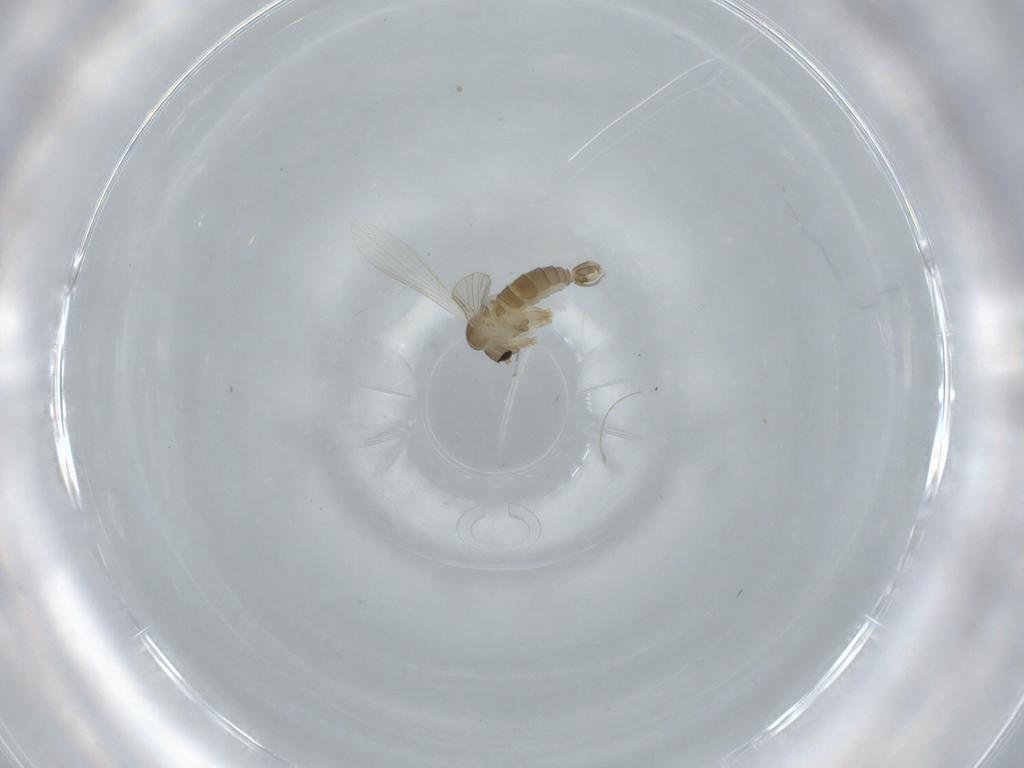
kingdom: Animalia
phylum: Arthropoda
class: Insecta
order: Diptera
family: Psychodidae
